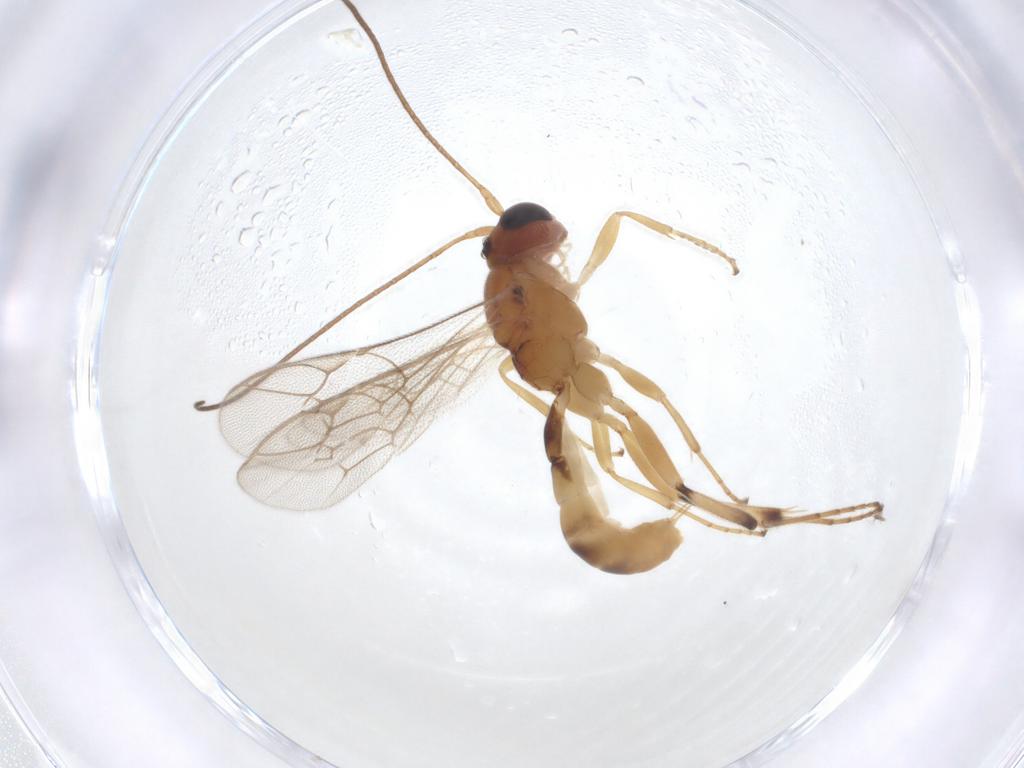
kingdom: Animalia
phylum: Arthropoda
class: Insecta
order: Hymenoptera
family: Ichneumonidae
